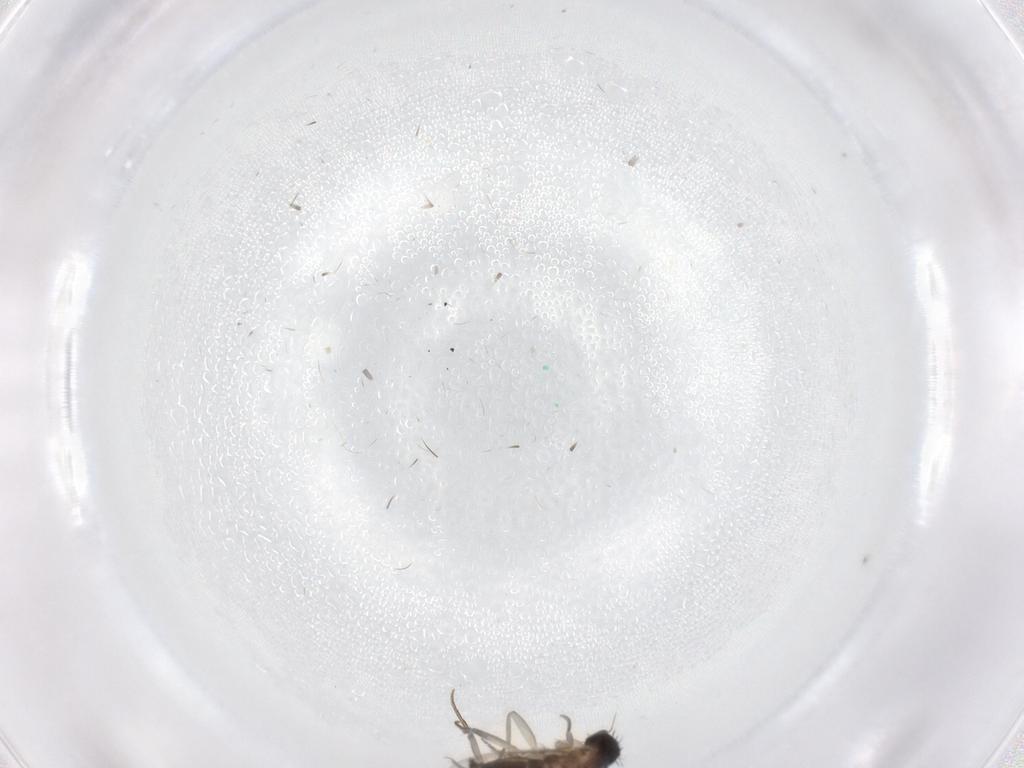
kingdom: Animalia
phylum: Arthropoda
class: Insecta
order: Diptera
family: Phoridae
